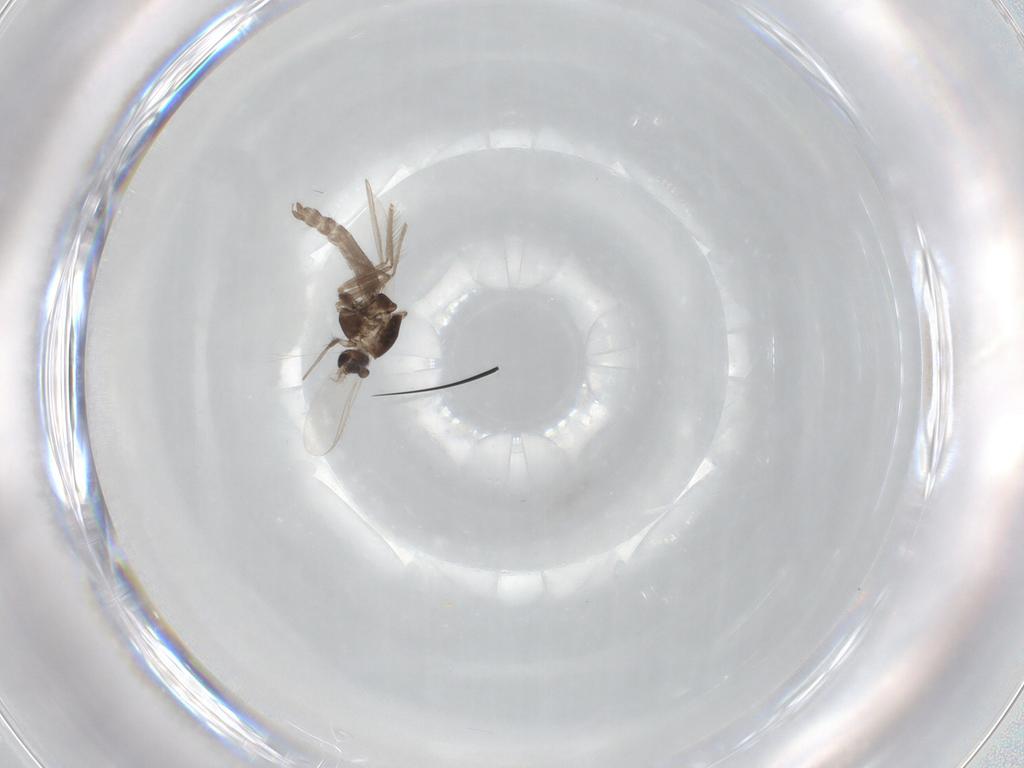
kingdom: Animalia
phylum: Arthropoda
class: Insecta
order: Diptera
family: Chironomidae
